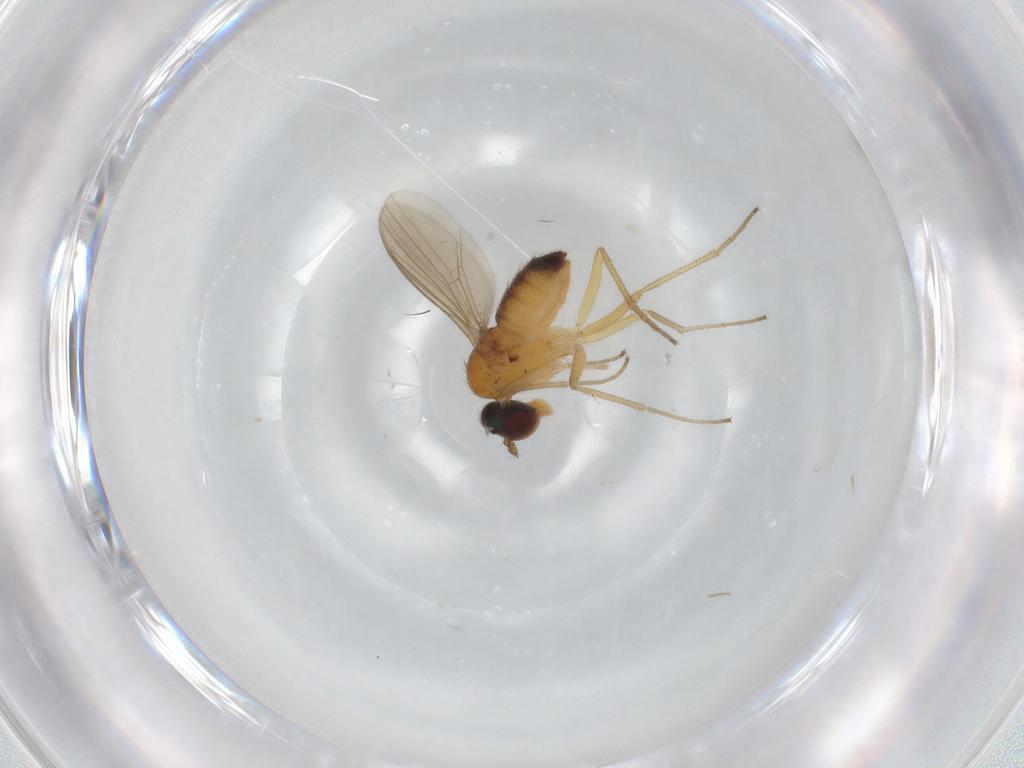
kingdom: Animalia
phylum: Arthropoda
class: Insecta
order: Diptera
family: Dolichopodidae
